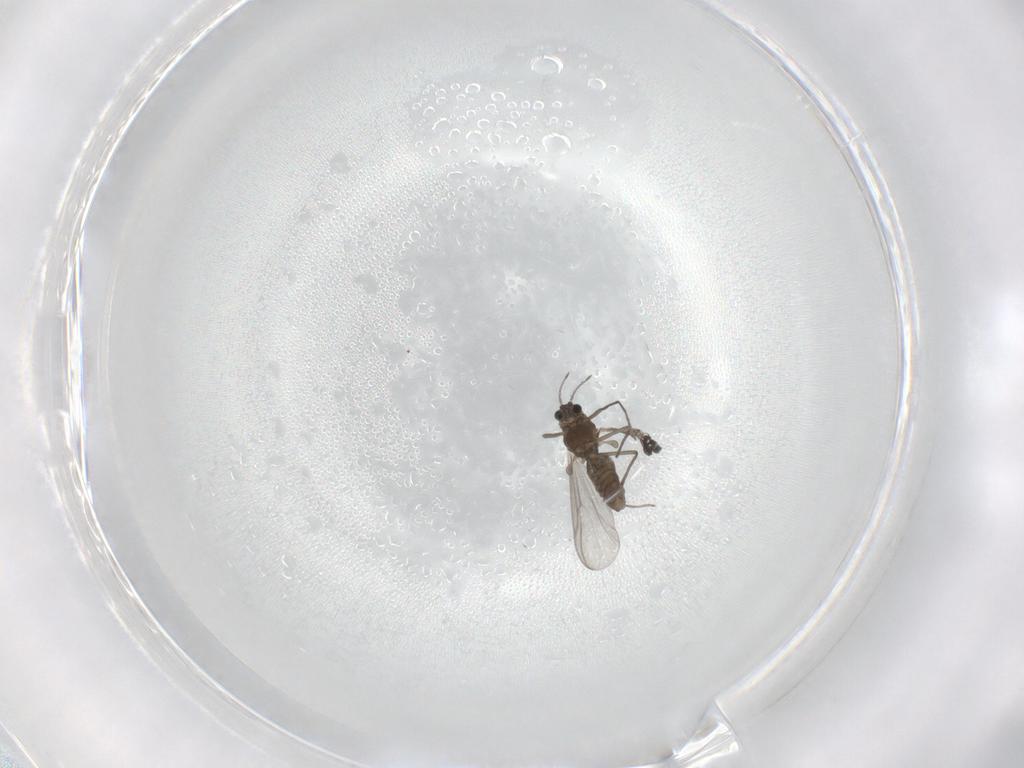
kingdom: Animalia
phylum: Arthropoda
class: Insecta
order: Diptera
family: Chironomidae
